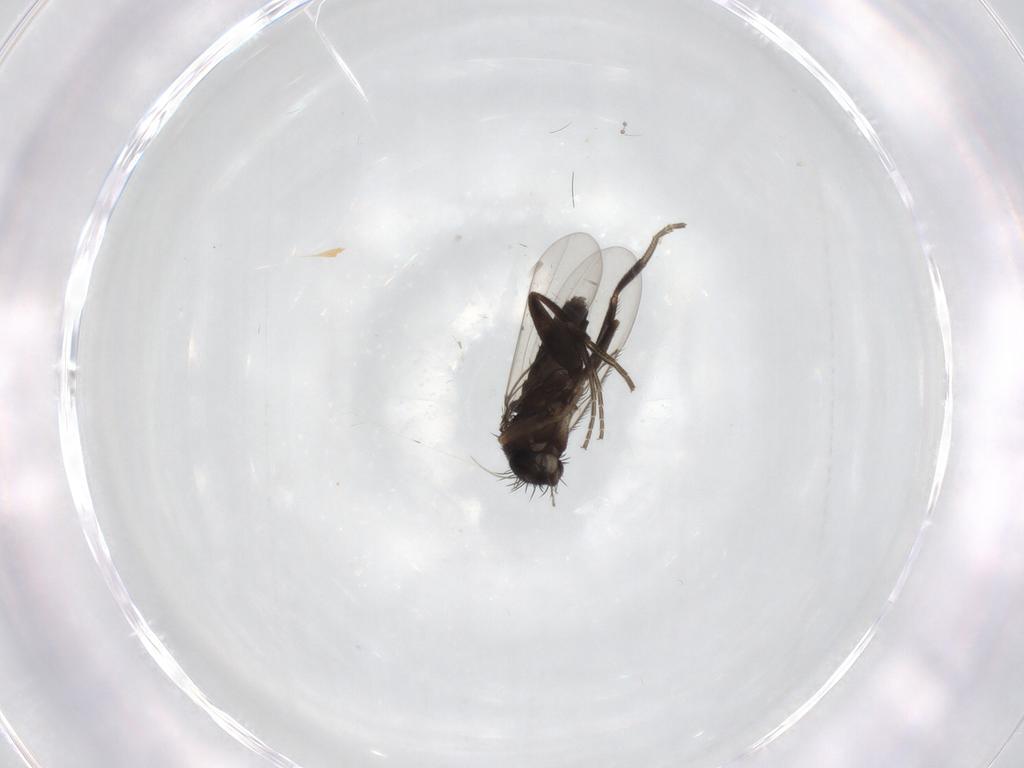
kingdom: Animalia
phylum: Arthropoda
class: Insecta
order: Diptera
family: Phoridae
